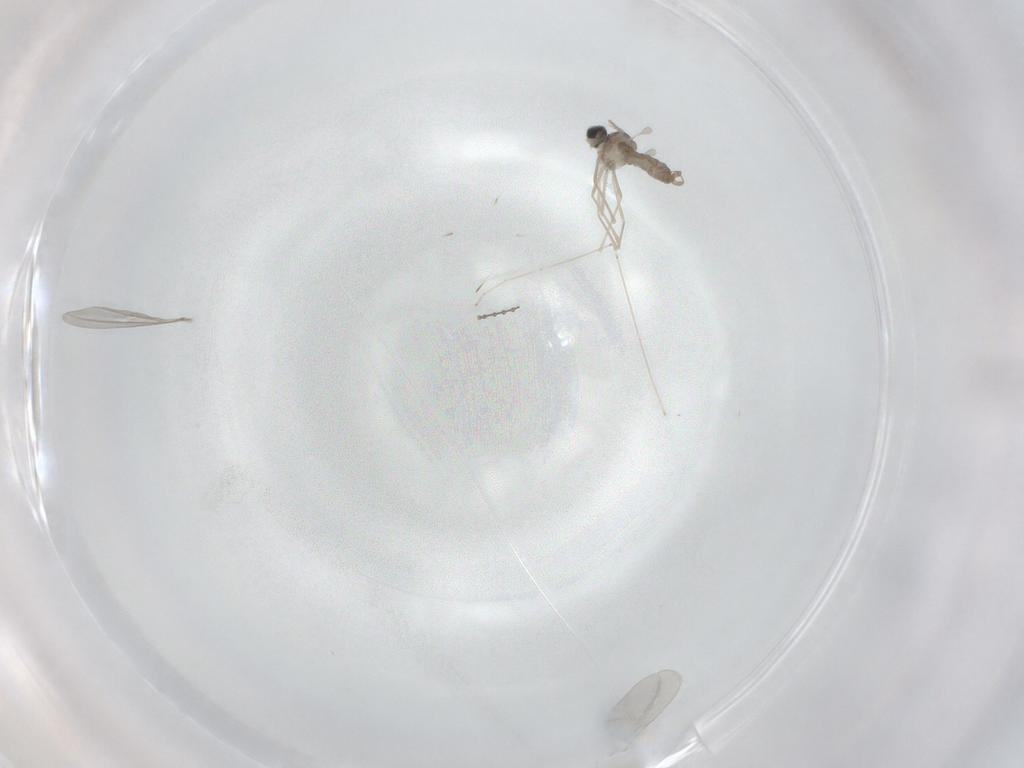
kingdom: Animalia
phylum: Arthropoda
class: Insecta
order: Diptera
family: Cecidomyiidae
